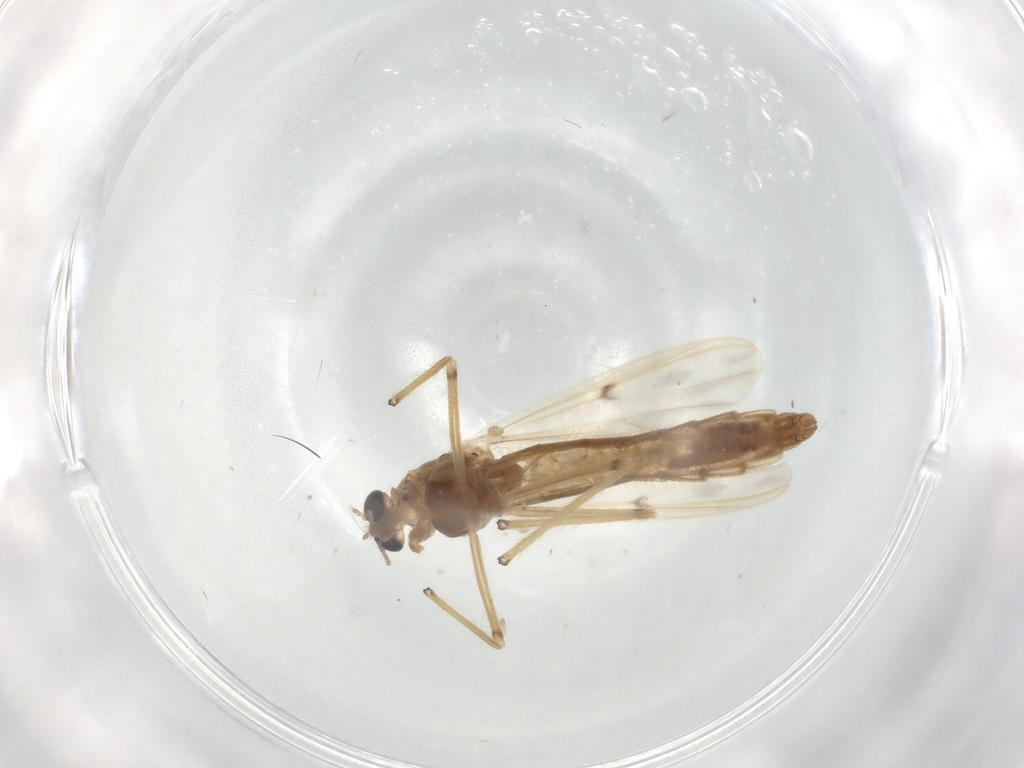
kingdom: Animalia
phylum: Arthropoda
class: Insecta
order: Diptera
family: Chironomidae
